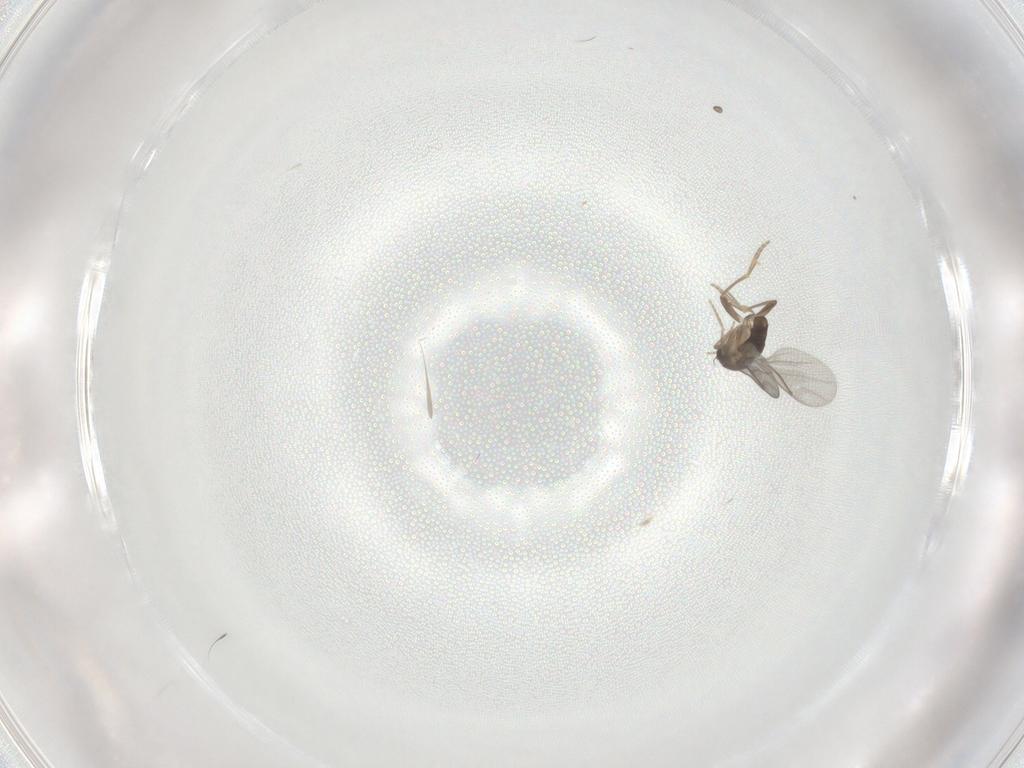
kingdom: Animalia
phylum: Arthropoda
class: Insecta
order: Diptera
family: Cecidomyiidae
